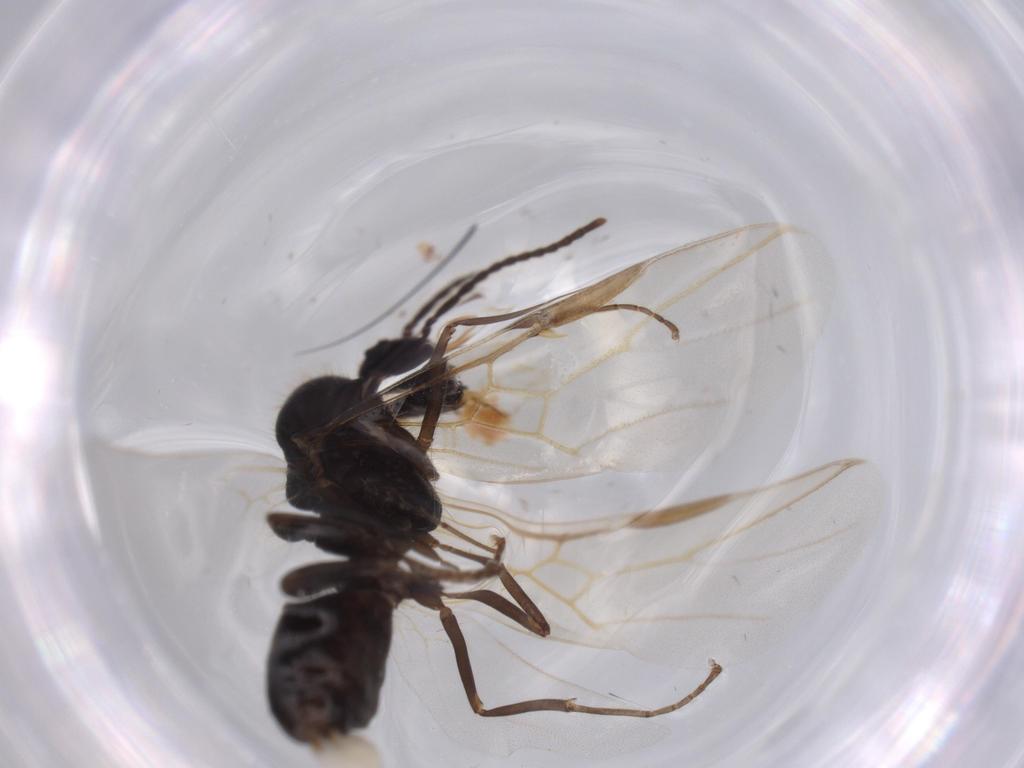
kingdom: Animalia
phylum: Arthropoda
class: Insecta
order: Hymenoptera
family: Formicidae
